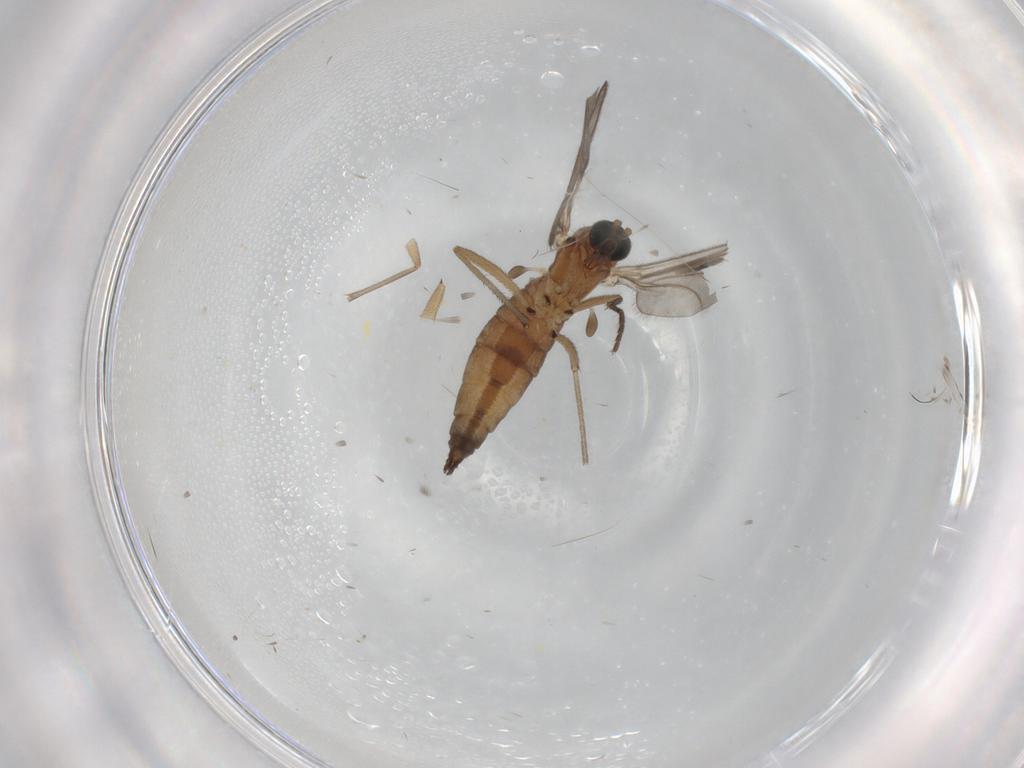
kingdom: Animalia
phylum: Arthropoda
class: Insecta
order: Diptera
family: Sciaridae
